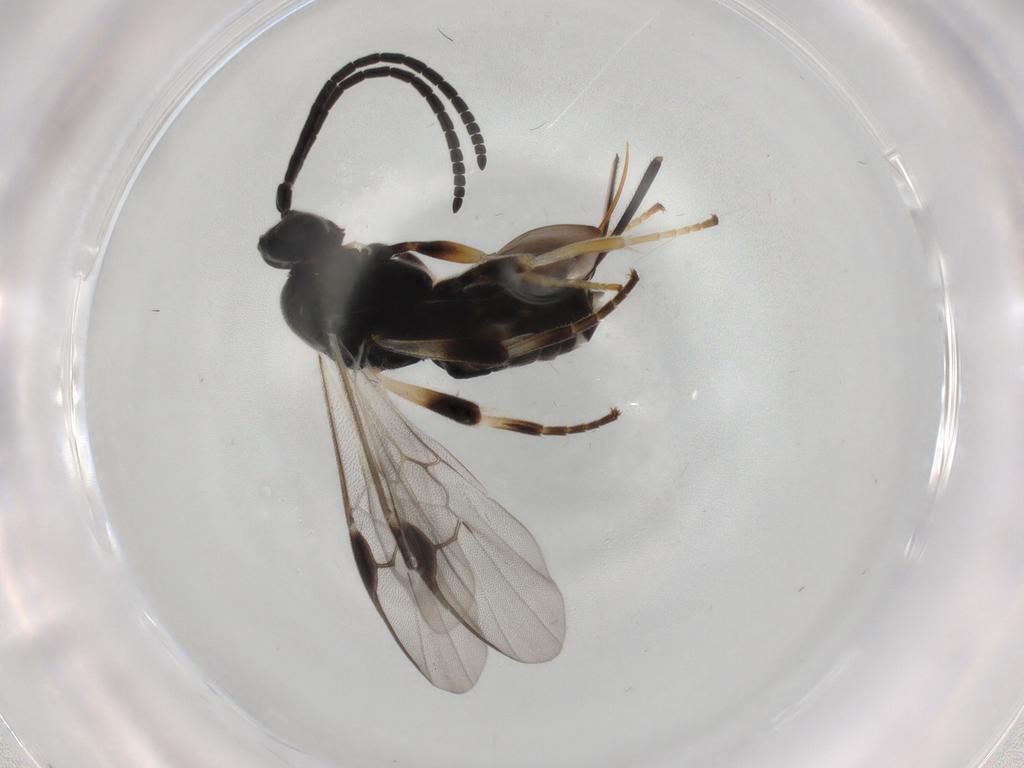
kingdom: Animalia
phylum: Arthropoda
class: Insecta
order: Hymenoptera
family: Braconidae
